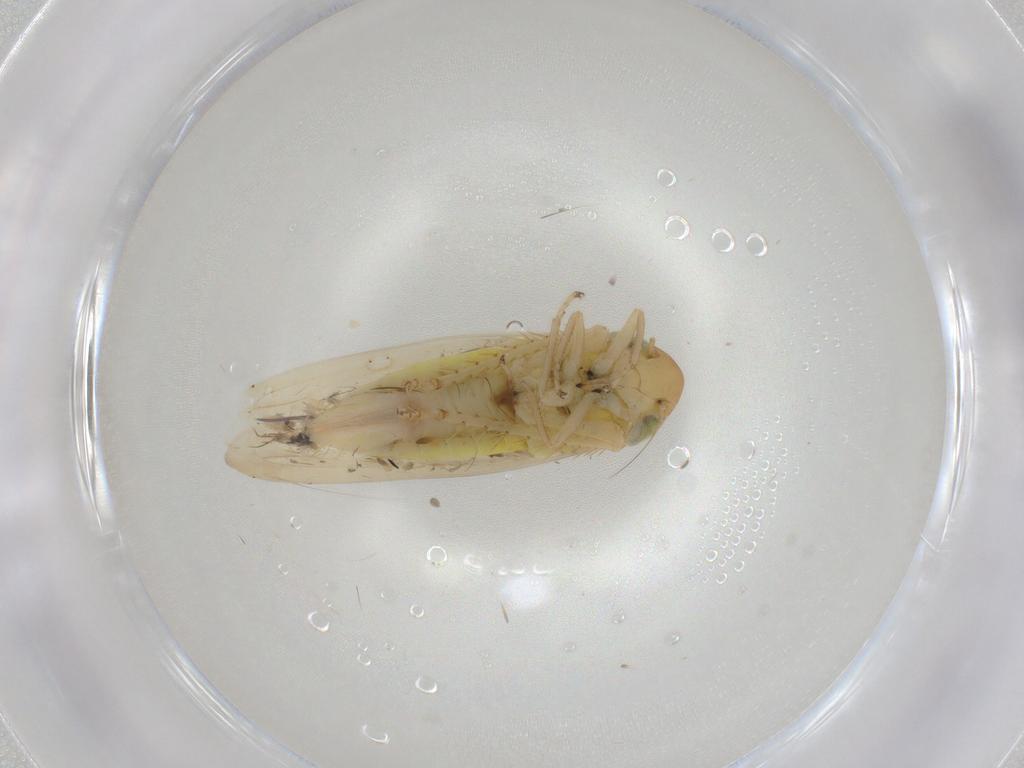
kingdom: Animalia
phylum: Arthropoda
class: Insecta
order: Hemiptera
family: Cicadellidae
